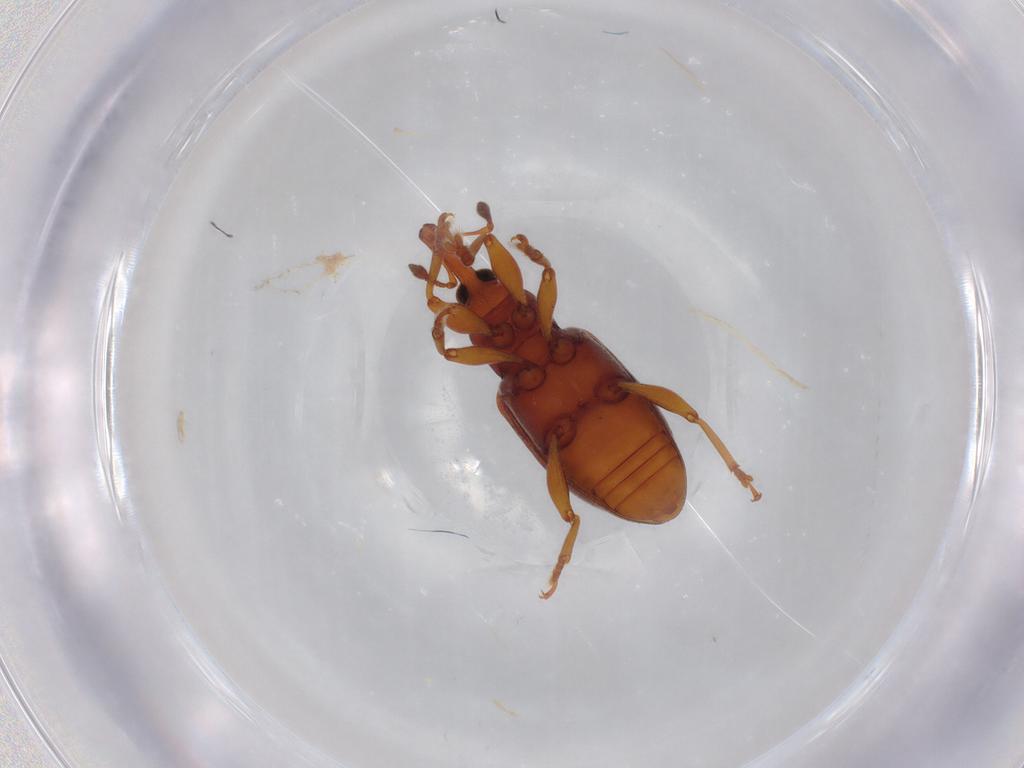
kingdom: Animalia
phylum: Arthropoda
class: Insecta
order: Coleoptera
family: Curculionidae
